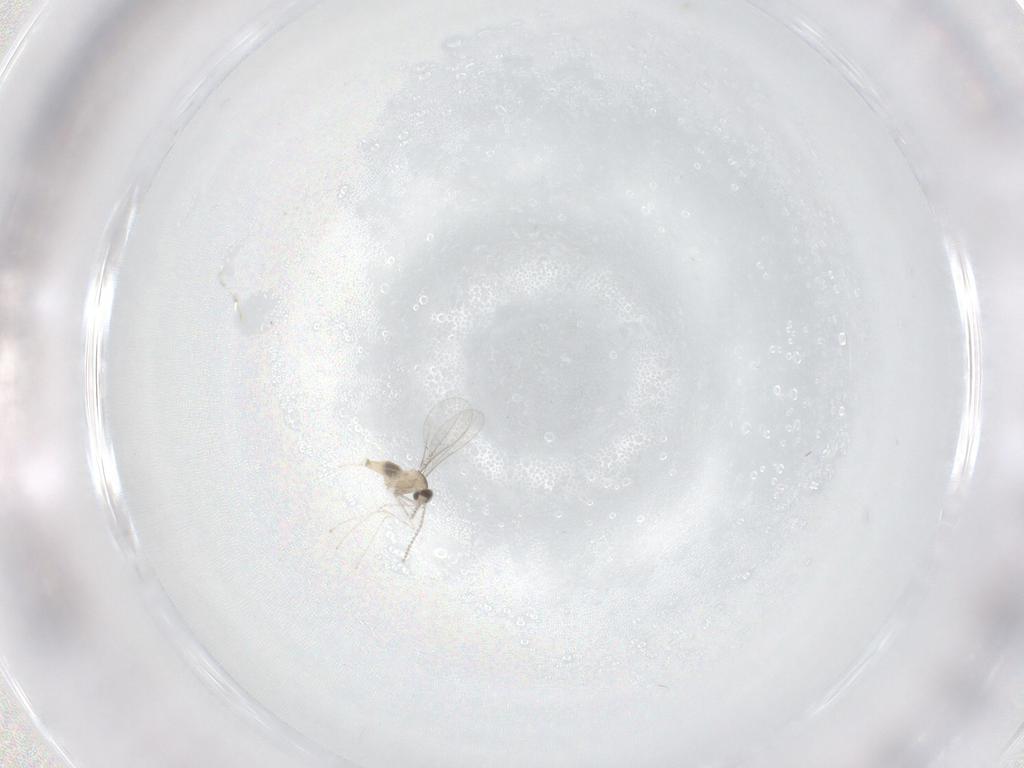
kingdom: Animalia
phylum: Arthropoda
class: Insecta
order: Diptera
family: Cecidomyiidae
